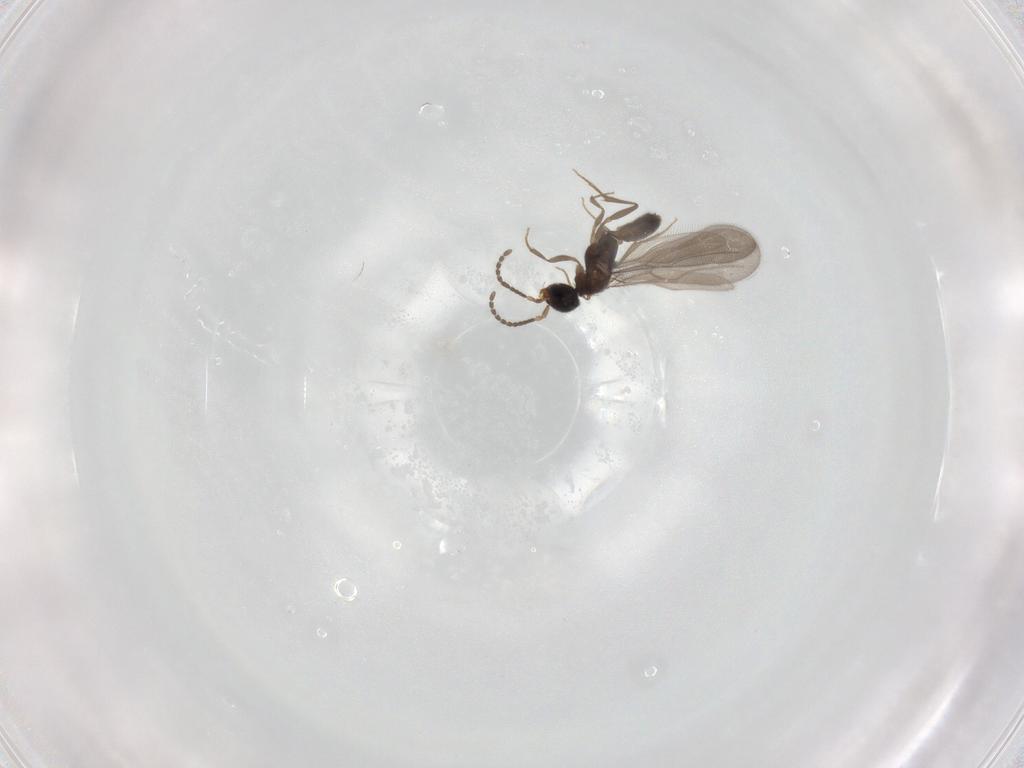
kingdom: Animalia
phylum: Arthropoda
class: Insecta
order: Hymenoptera
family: Bethylidae
